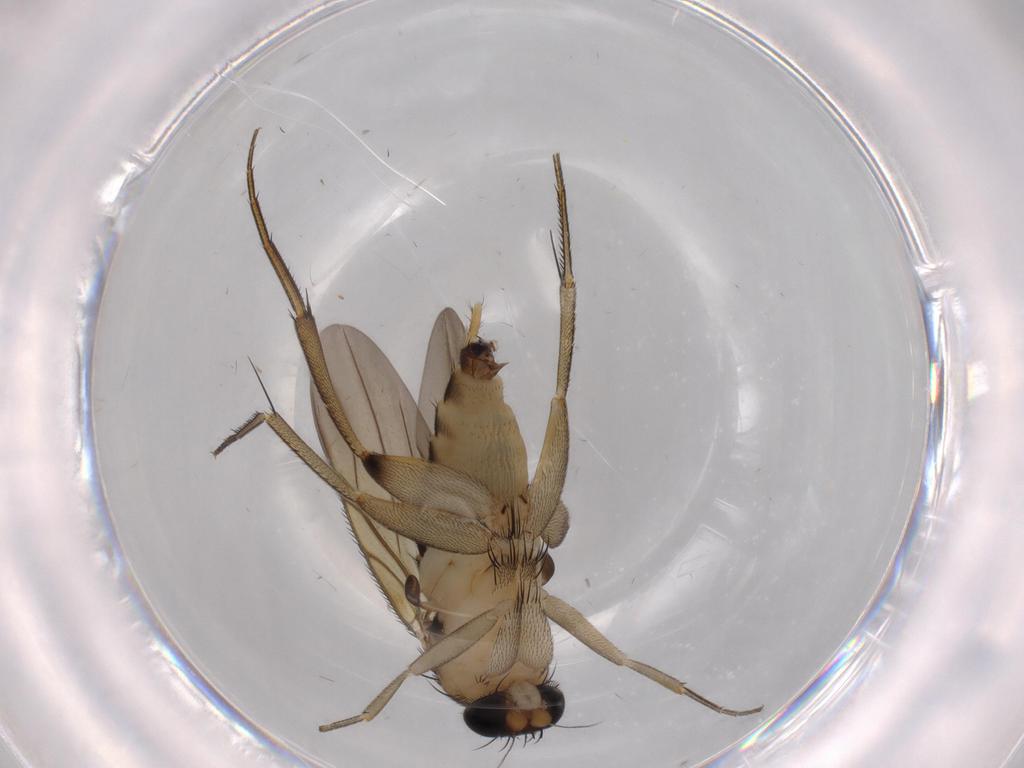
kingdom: Animalia
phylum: Arthropoda
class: Insecta
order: Diptera
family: Phoridae
